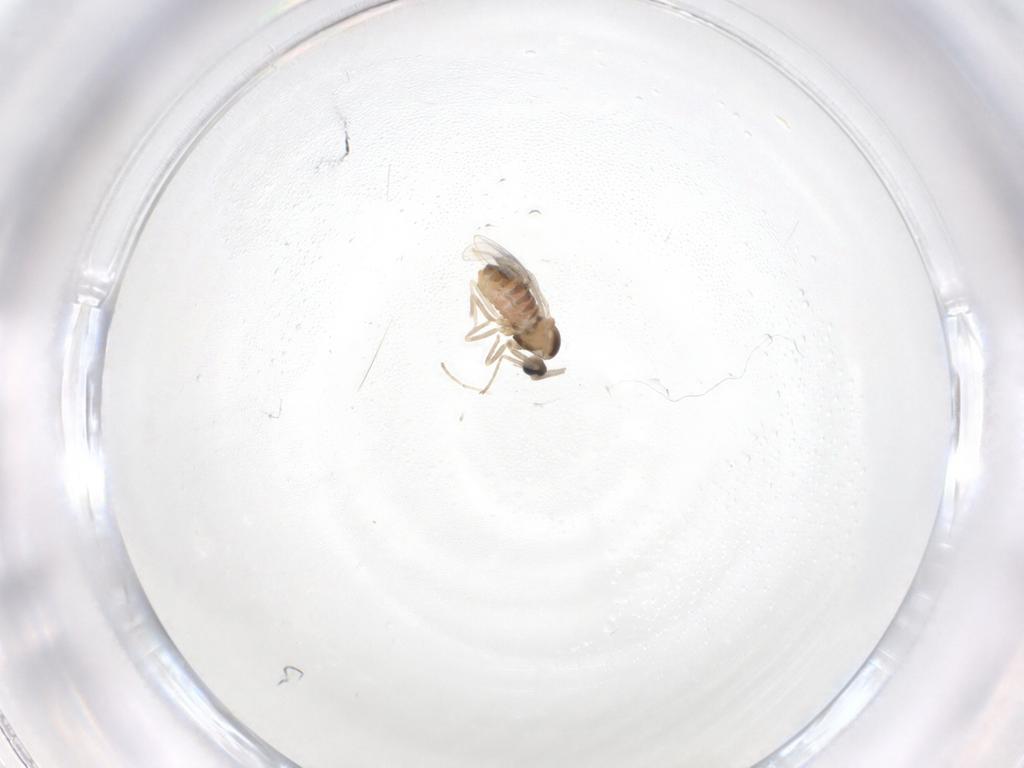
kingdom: Animalia
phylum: Arthropoda
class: Insecta
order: Diptera
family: Cecidomyiidae
